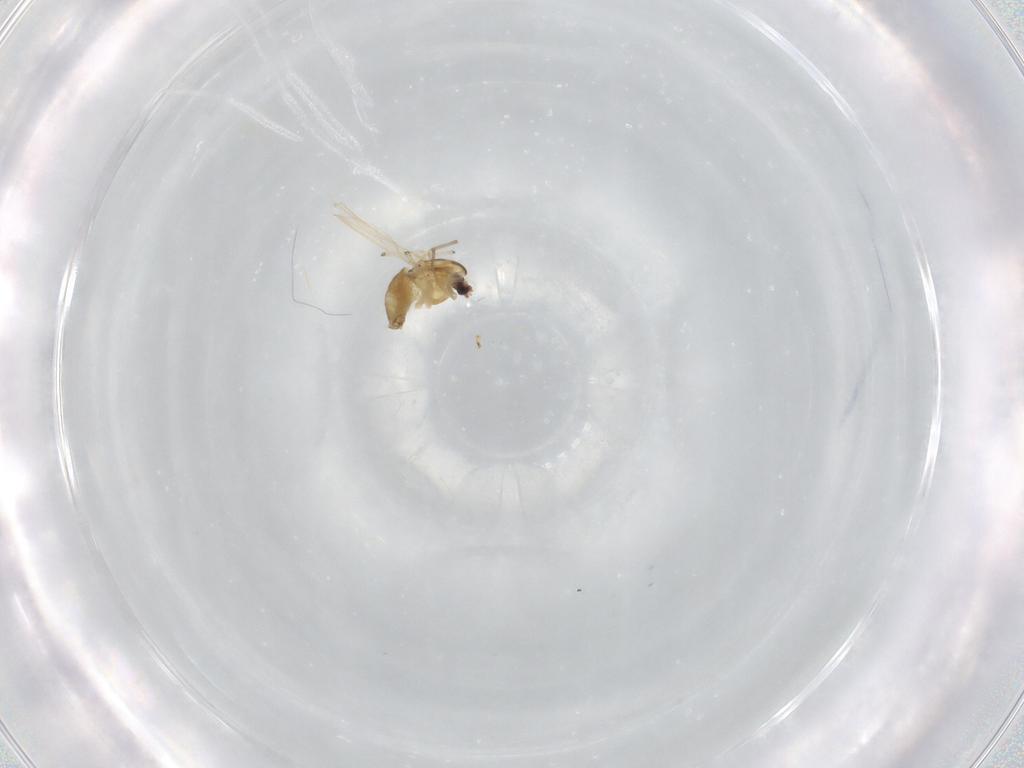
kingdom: Animalia
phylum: Arthropoda
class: Insecta
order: Diptera
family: Chironomidae
